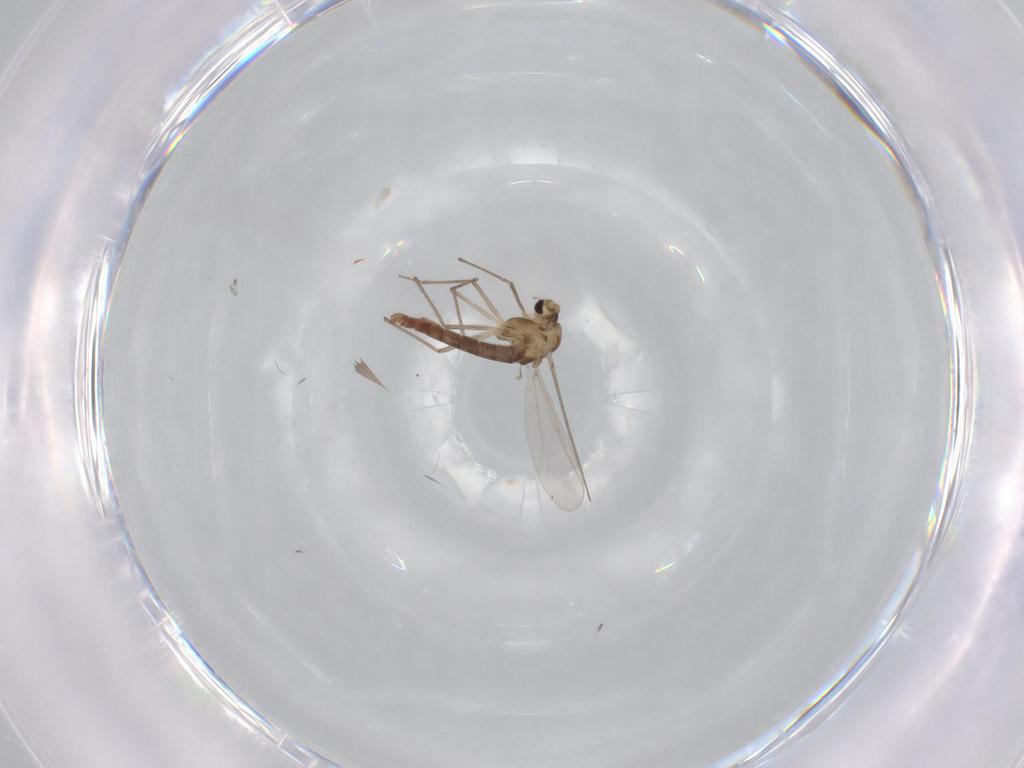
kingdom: Animalia
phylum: Arthropoda
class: Insecta
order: Diptera
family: Chironomidae
